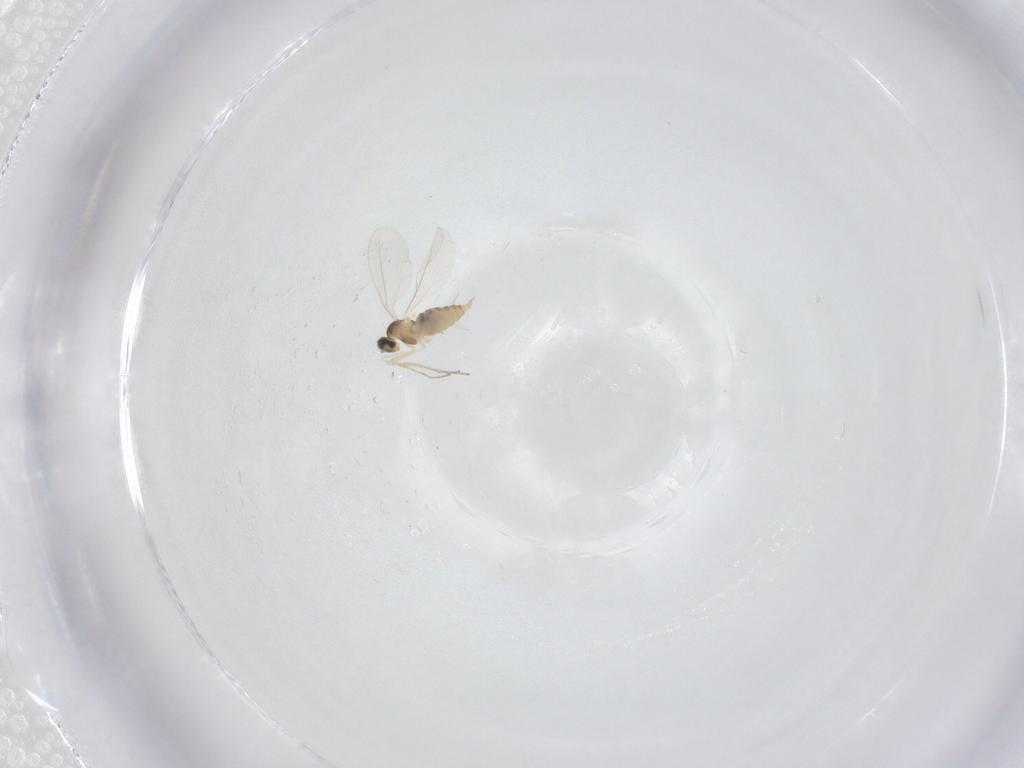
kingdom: Animalia
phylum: Arthropoda
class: Insecta
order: Diptera
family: Cecidomyiidae
